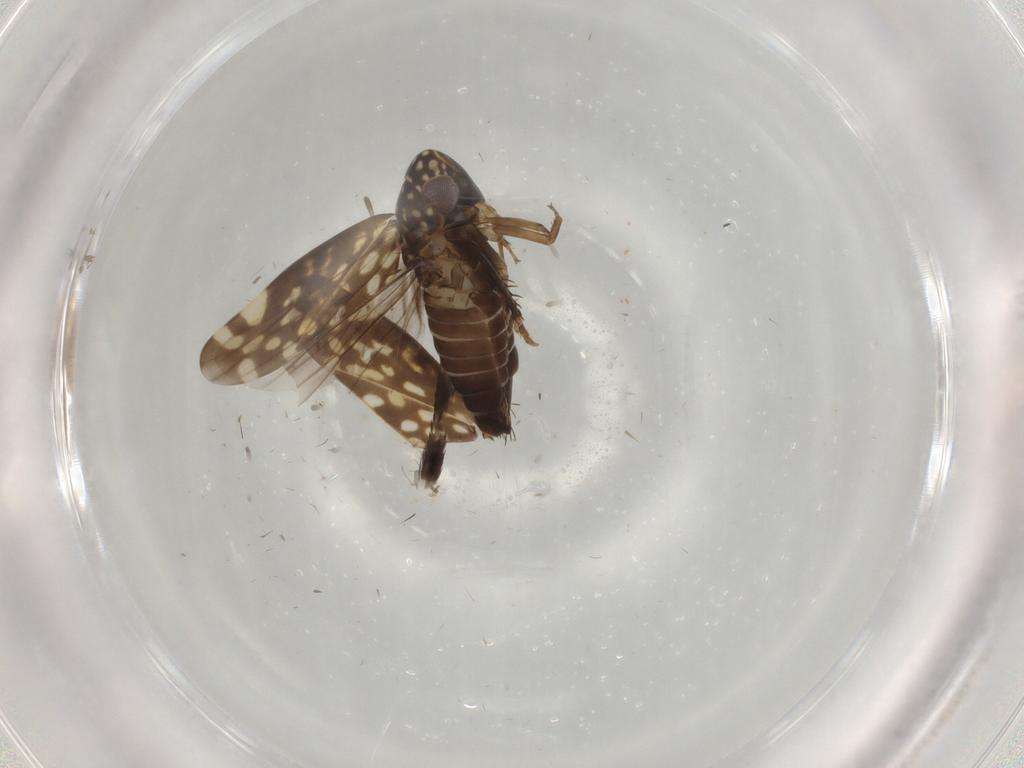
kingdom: Animalia
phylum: Arthropoda
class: Insecta
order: Hemiptera
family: Cicadellidae
